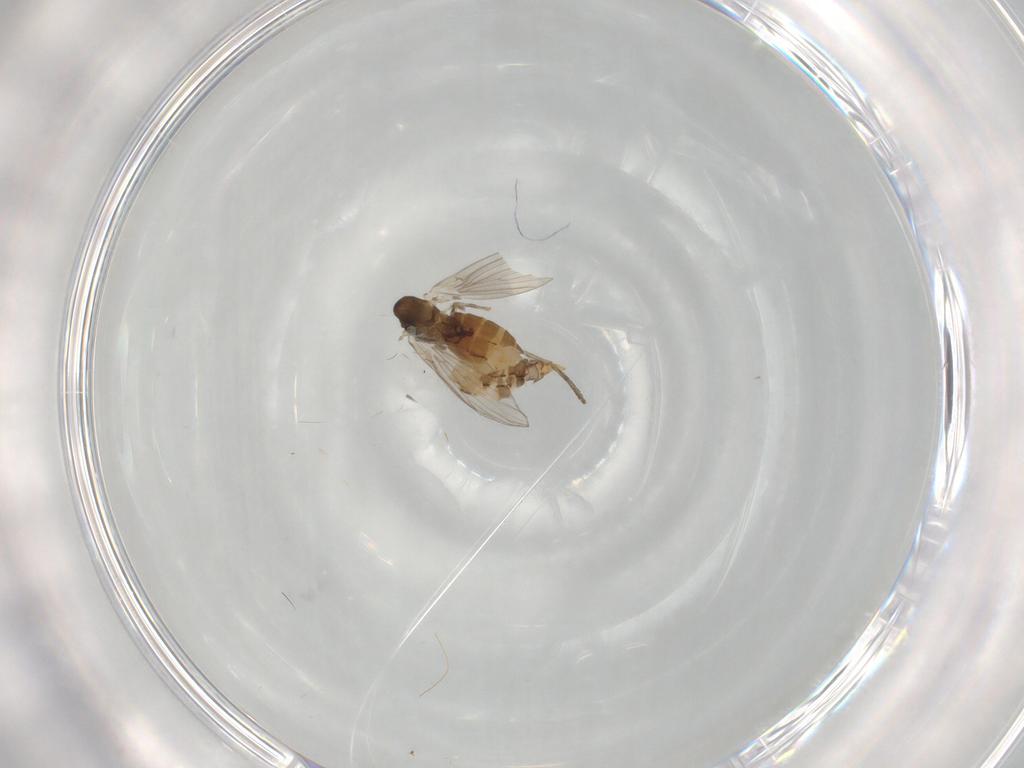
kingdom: Animalia
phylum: Arthropoda
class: Insecta
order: Diptera
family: Psychodidae
